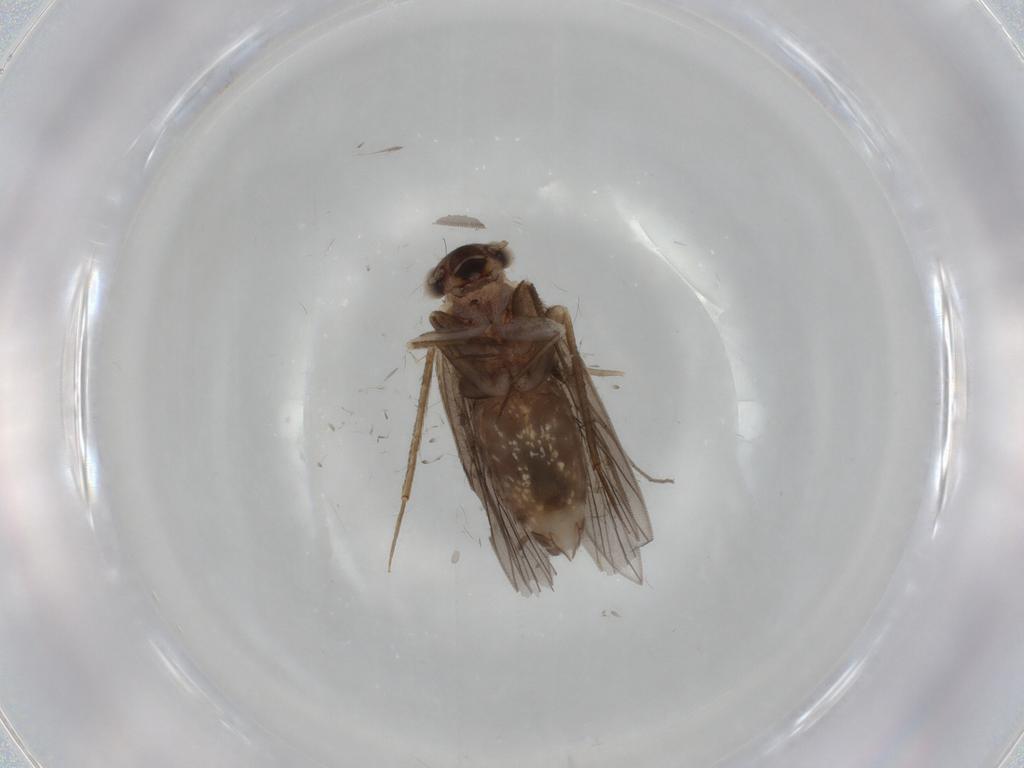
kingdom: Animalia
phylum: Arthropoda
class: Insecta
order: Psocodea
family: Lepidopsocidae
